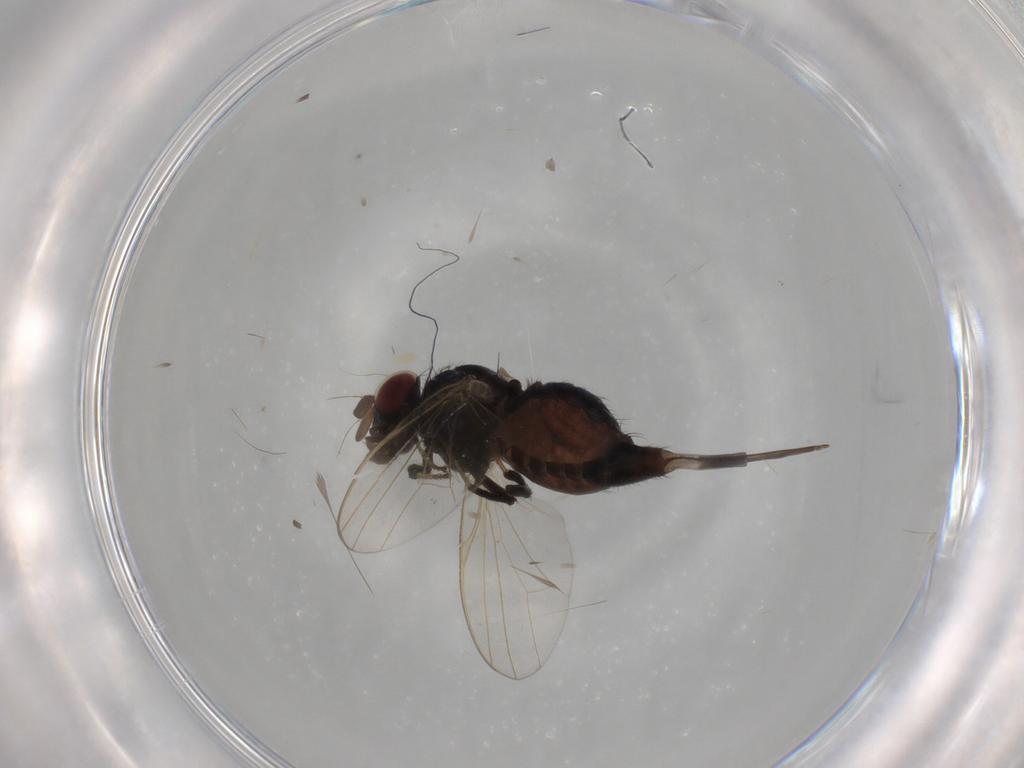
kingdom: Animalia
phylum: Arthropoda
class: Insecta
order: Diptera
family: Lonchaeidae
